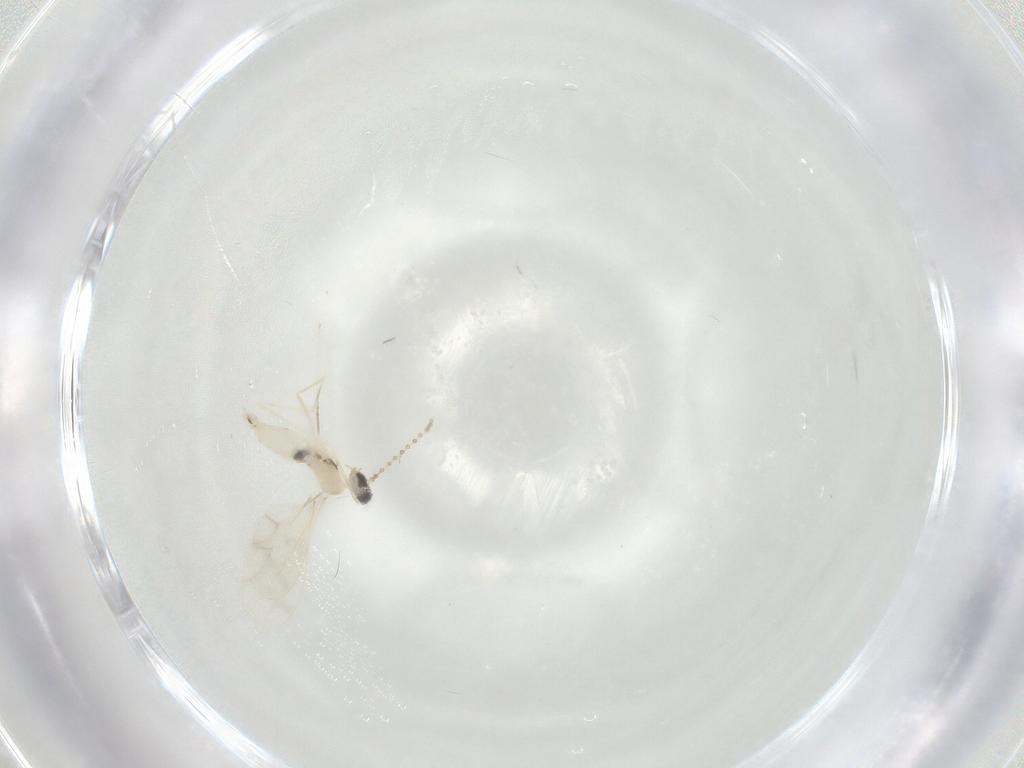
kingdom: Animalia
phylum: Arthropoda
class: Insecta
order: Diptera
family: Cecidomyiidae
